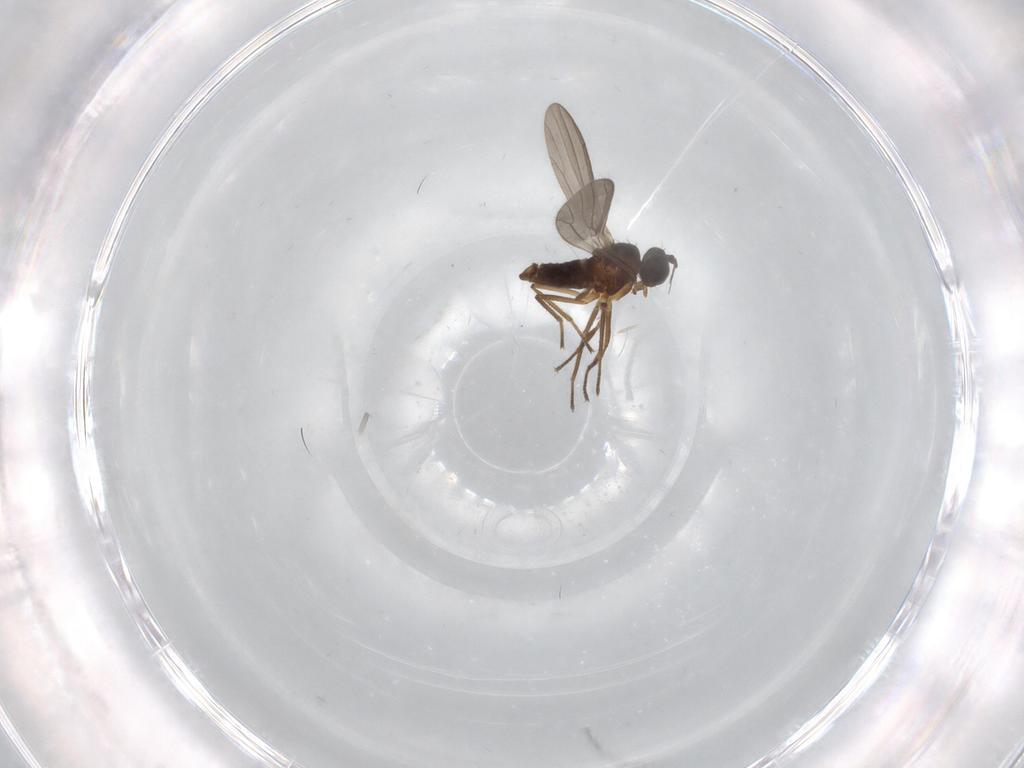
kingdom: Animalia
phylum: Arthropoda
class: Insecta
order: Diptera
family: Empididae
